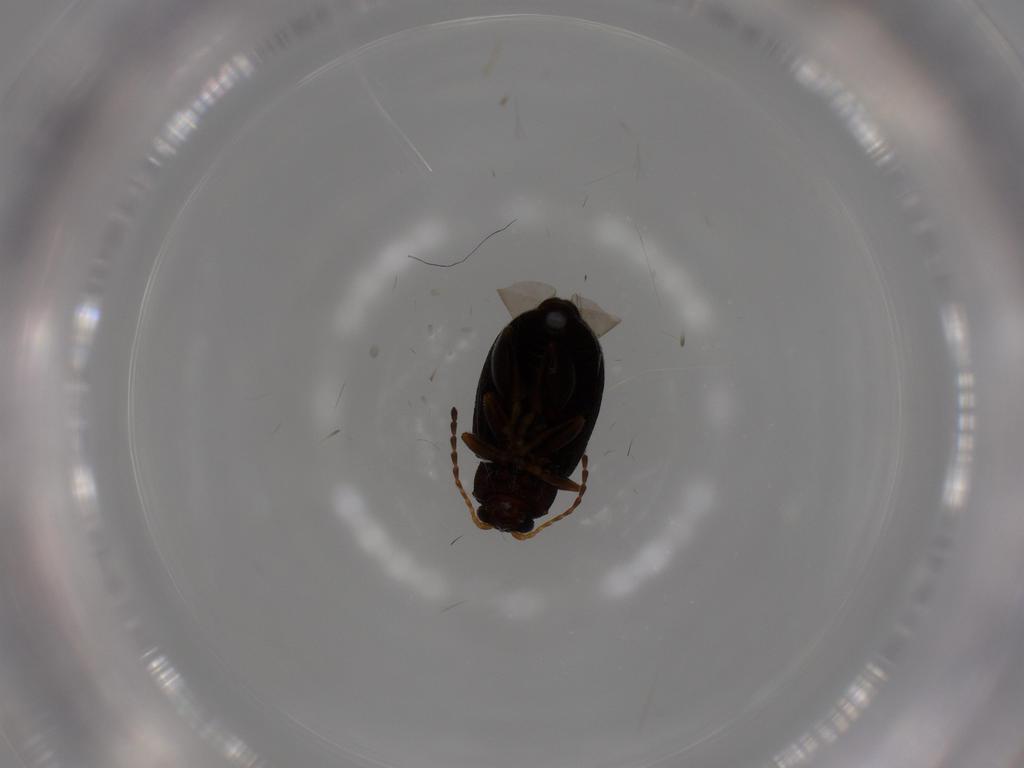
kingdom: Animalia
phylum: Arthropoda
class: Insecta
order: Coleoptera
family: Chrysomelidae
